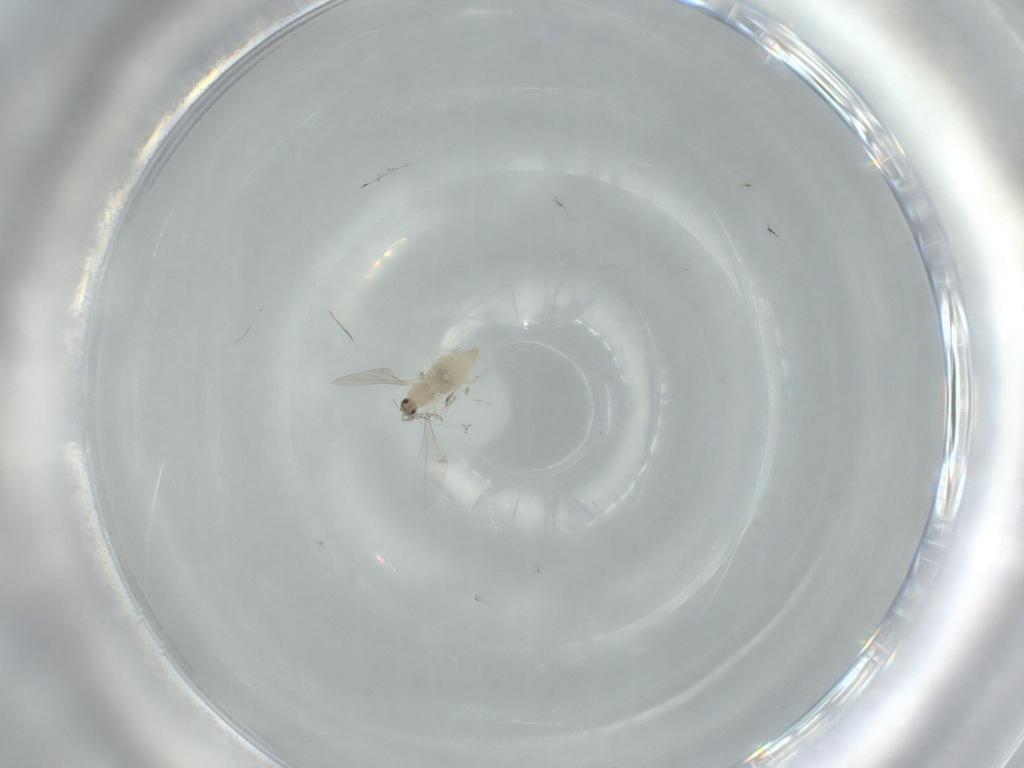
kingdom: Animalia
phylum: Arthropoda
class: Insecta
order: Diptera
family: Cecidomyiidae
